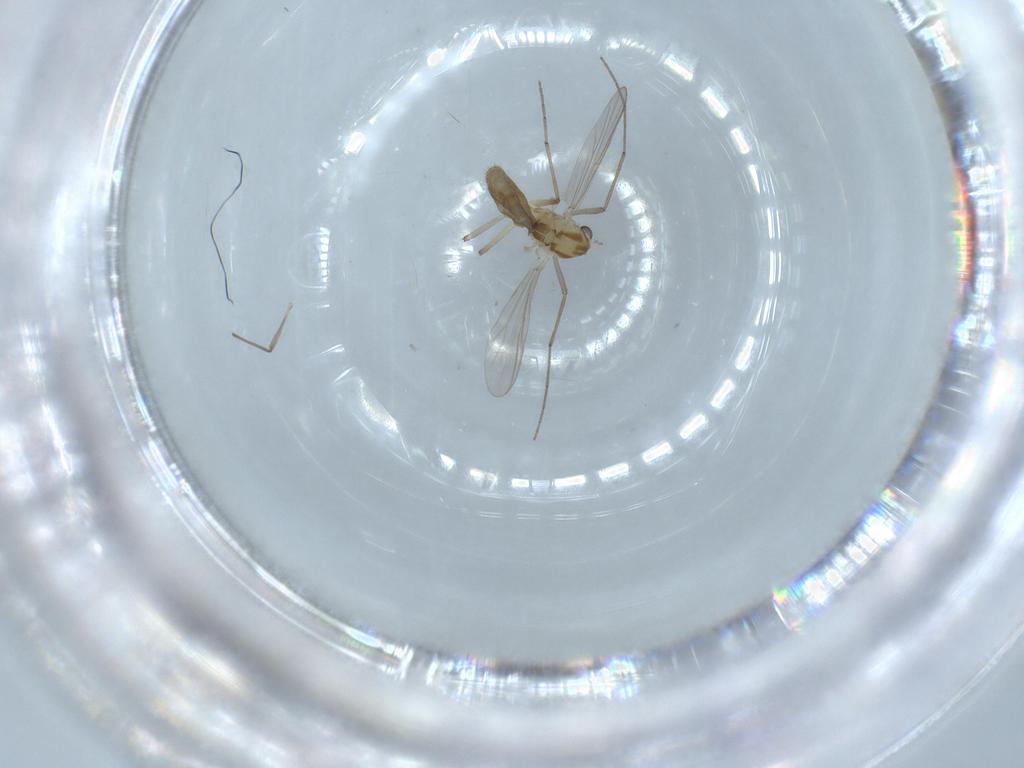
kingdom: Animalia
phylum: Arthropoda
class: Insecta
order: Diptera
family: Chironomidae
